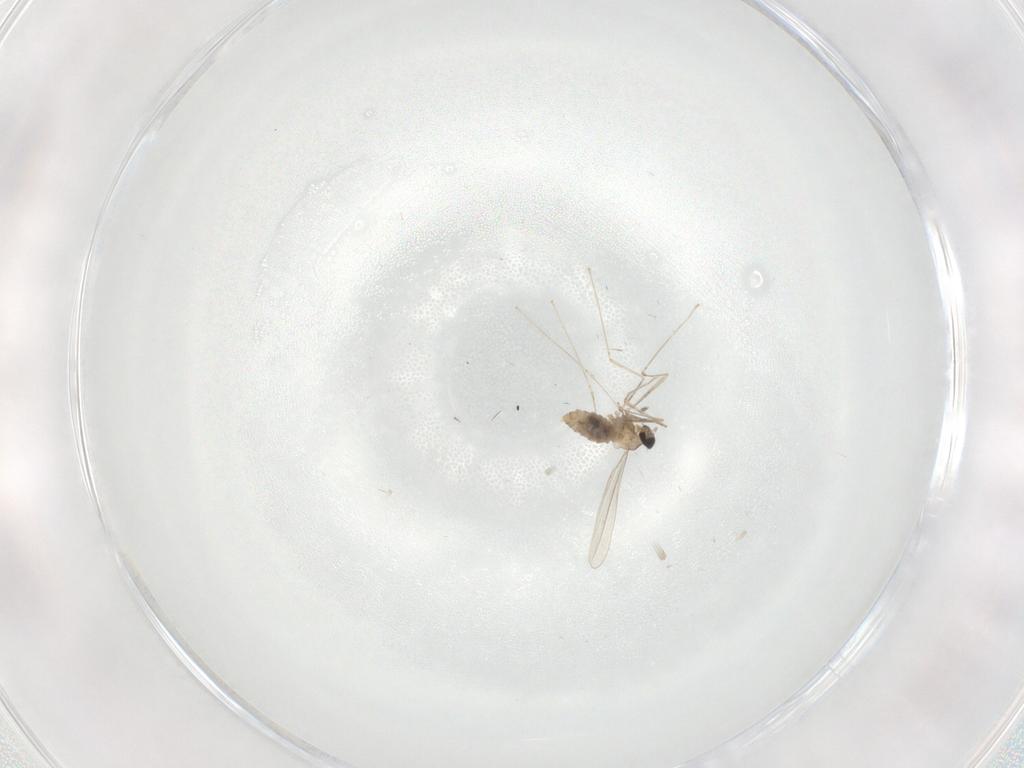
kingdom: Animalia
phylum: Arthropoda
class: Insecta
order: Diptera
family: Cecidomyiidae
